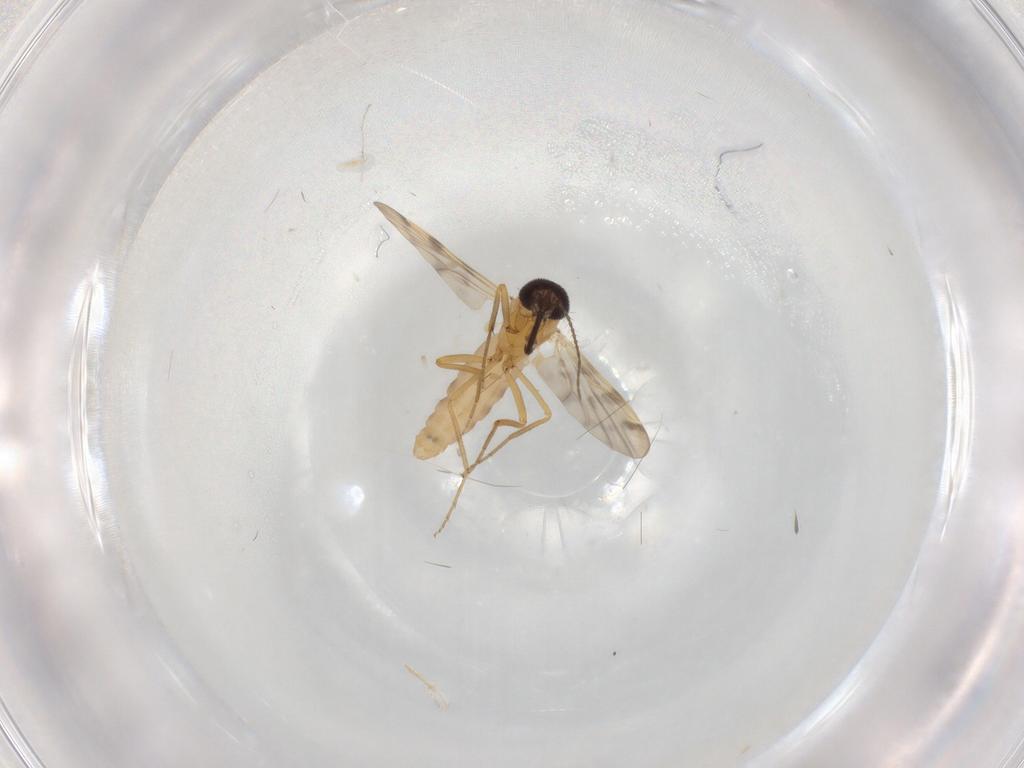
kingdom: Animalia
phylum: Arthropoda
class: Insecta
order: Diptera
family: Ceratopogonidae
